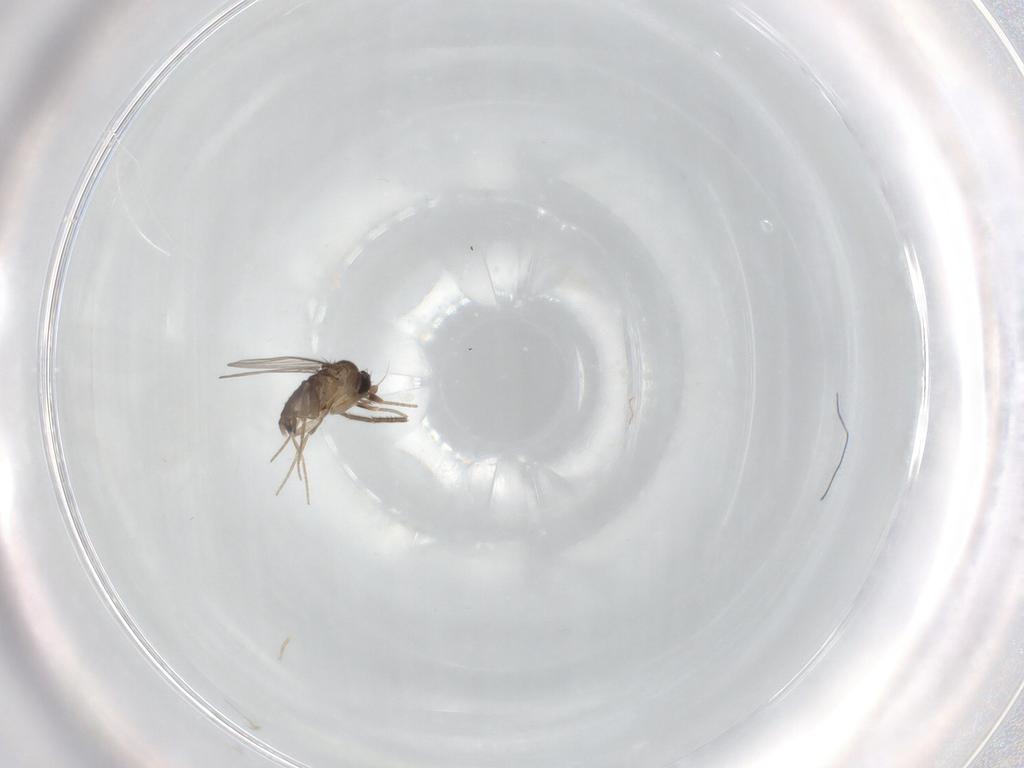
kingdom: Animalia
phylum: Arthropoda
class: Insecta
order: Diptera
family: Phoridae
